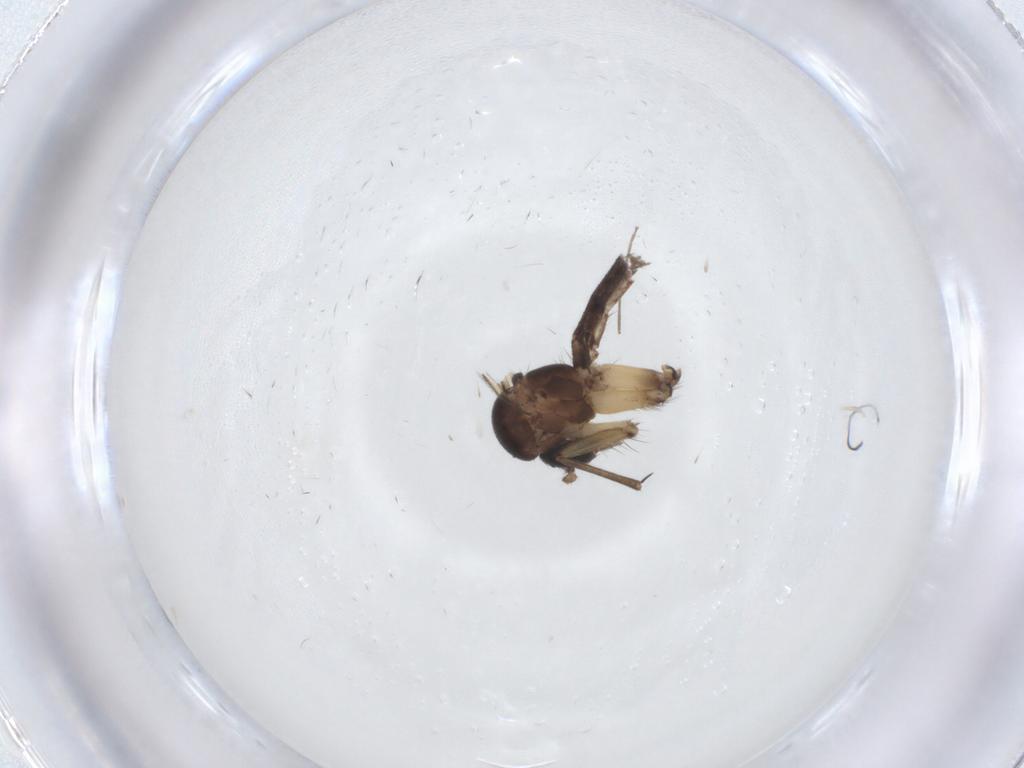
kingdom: Animalia
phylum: Arthropoda
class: Insecta
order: Diptera
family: Chironomidae
